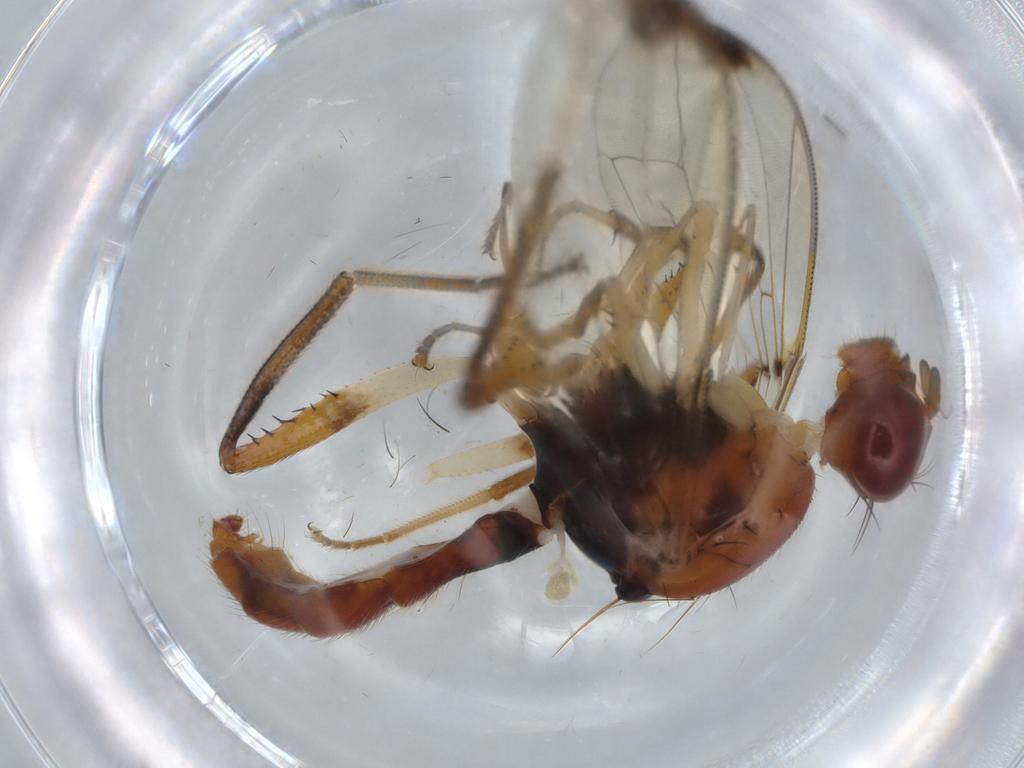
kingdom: Animalia
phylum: Arthropoda
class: Insecta
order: Diptera
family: Richardiidae
